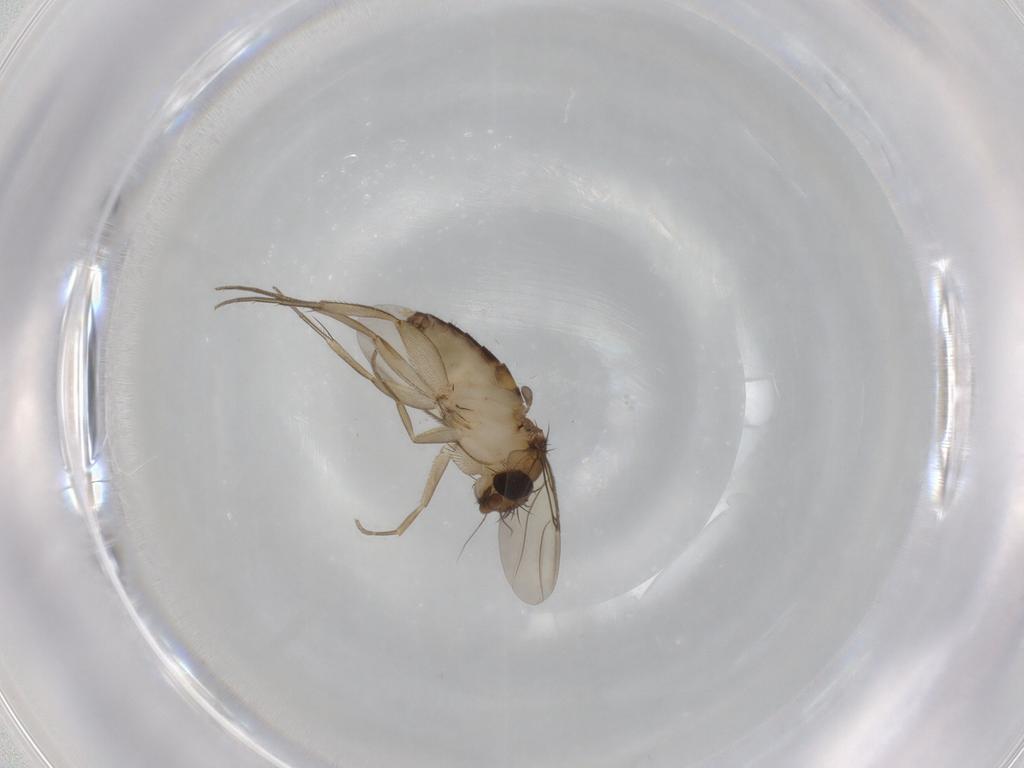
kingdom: Animalia
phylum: Arthropoda
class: Insecta
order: Diptera
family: Phoridae
